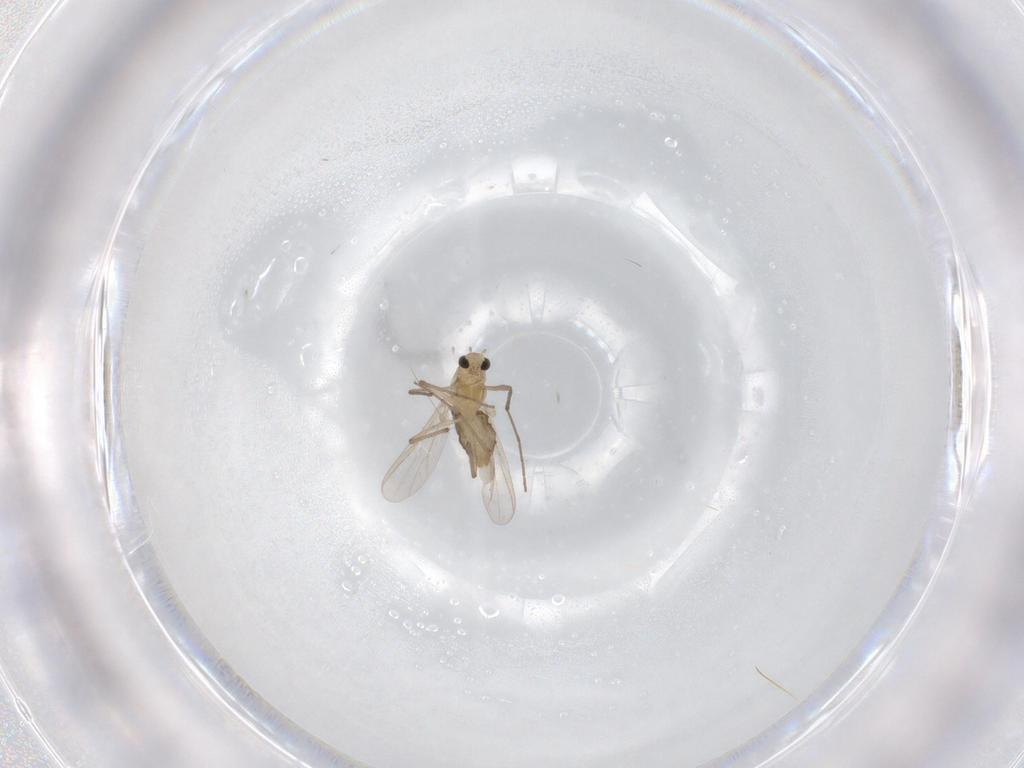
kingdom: Animalia
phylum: Arthropoda
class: Insecta
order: Diptera
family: Chironomidae
